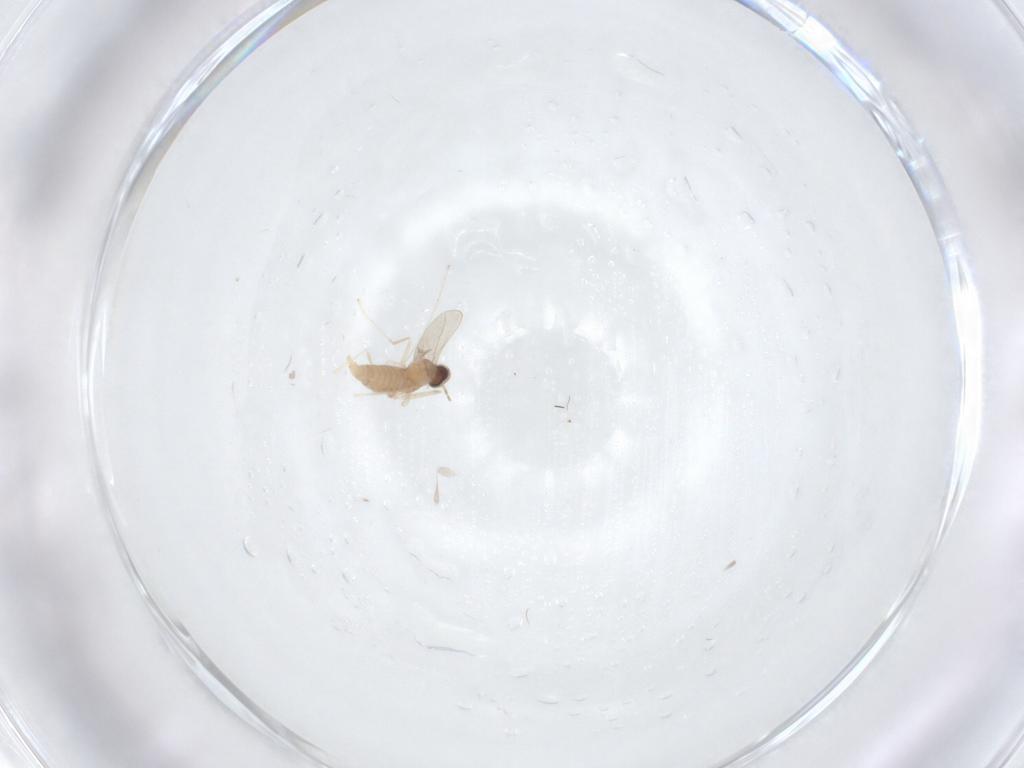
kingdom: Animalia
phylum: Arthropoda
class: Insecta
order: Diptera
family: Cecidomyiidae
